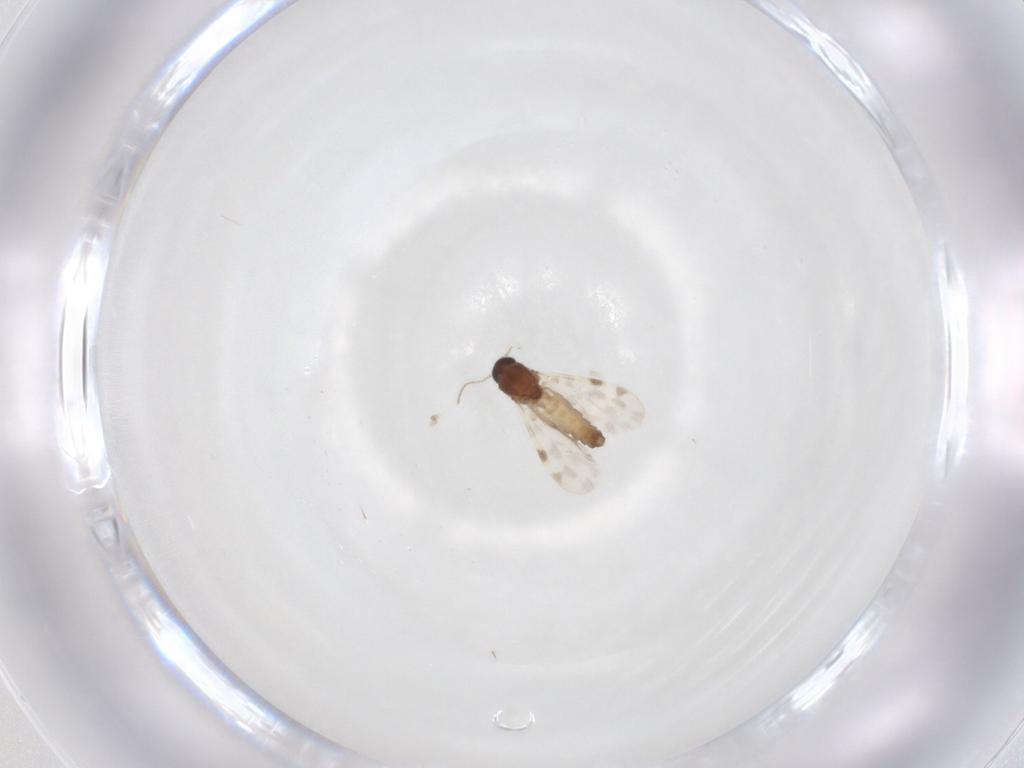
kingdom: Animalia
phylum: Arthropoda
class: Insecta
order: Diptera
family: Ceratopogonidae
